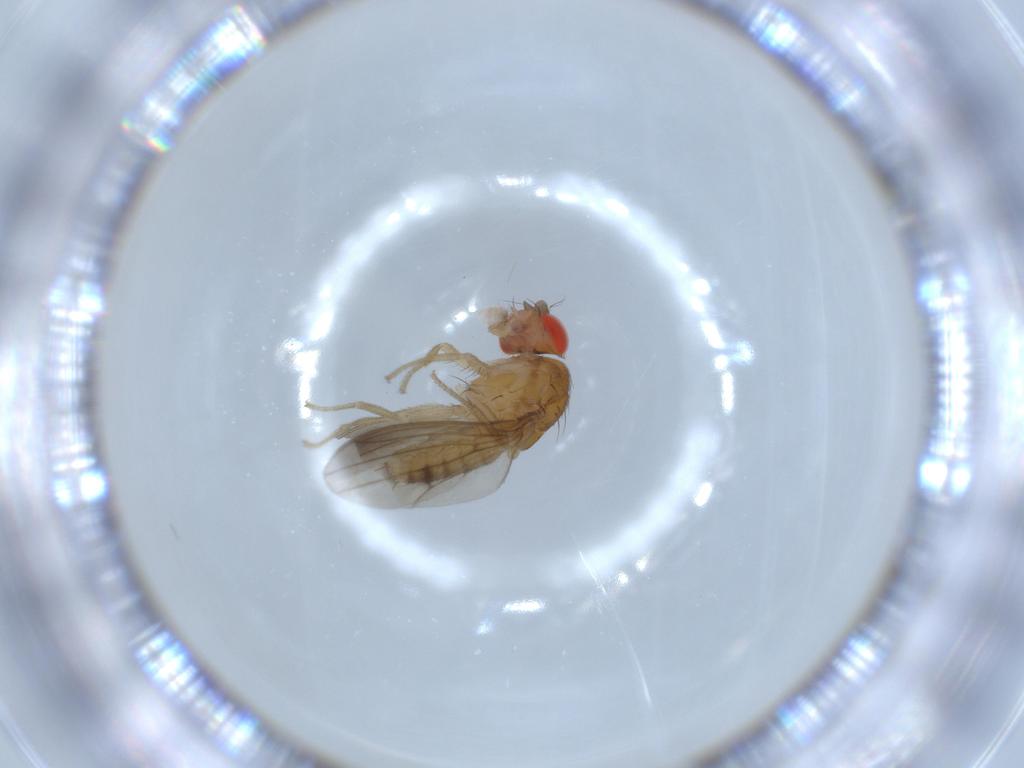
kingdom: Animalia
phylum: Arthropoda
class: Insecta
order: Diptera
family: Drosophilidae
